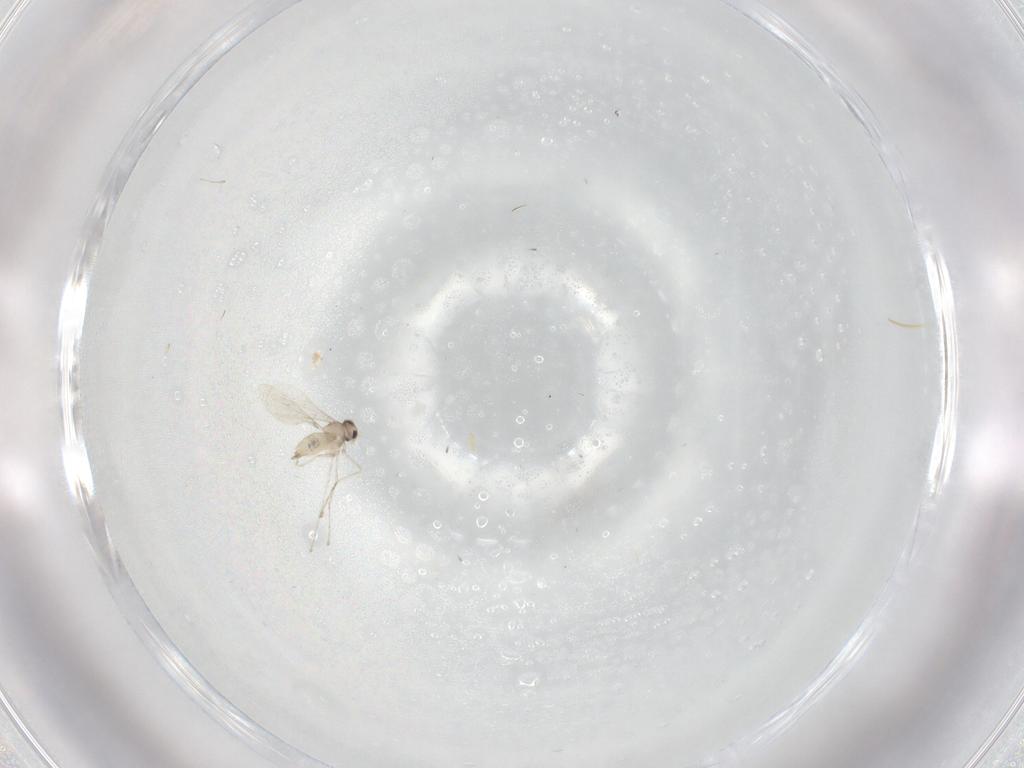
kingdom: Animalia
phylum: Arthropoda
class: Insecta
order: Diptera
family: Cecidomyiidae
